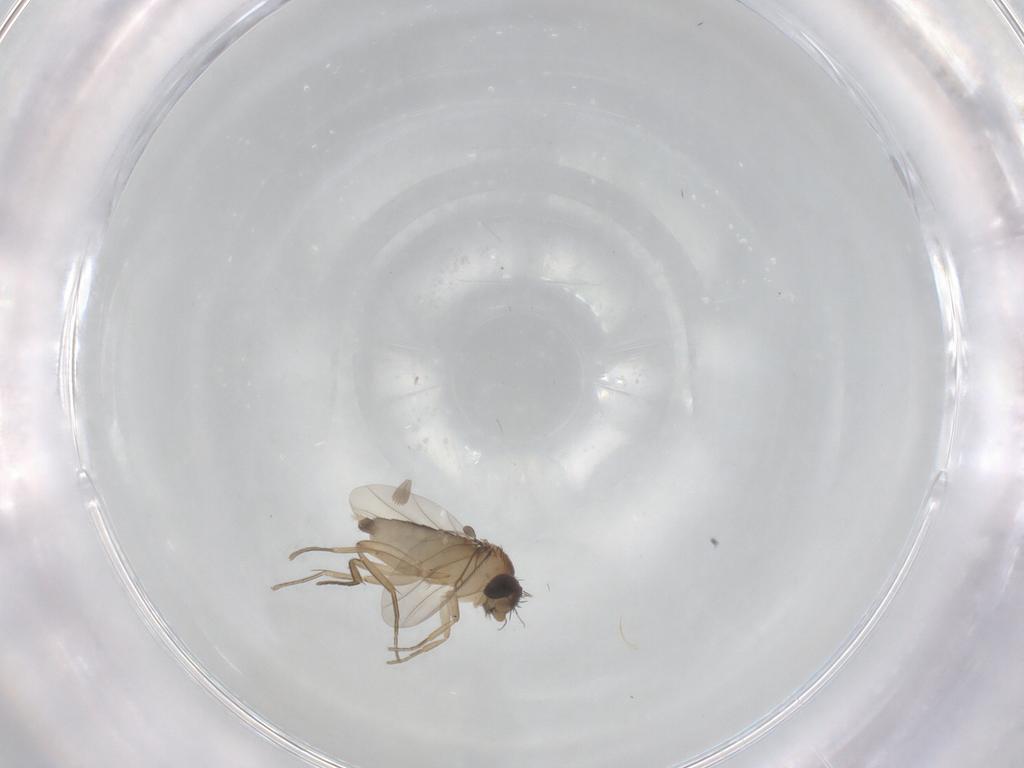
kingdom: Animalia
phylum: Arthropoda
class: Insecta
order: Diptera
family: Phoridae
